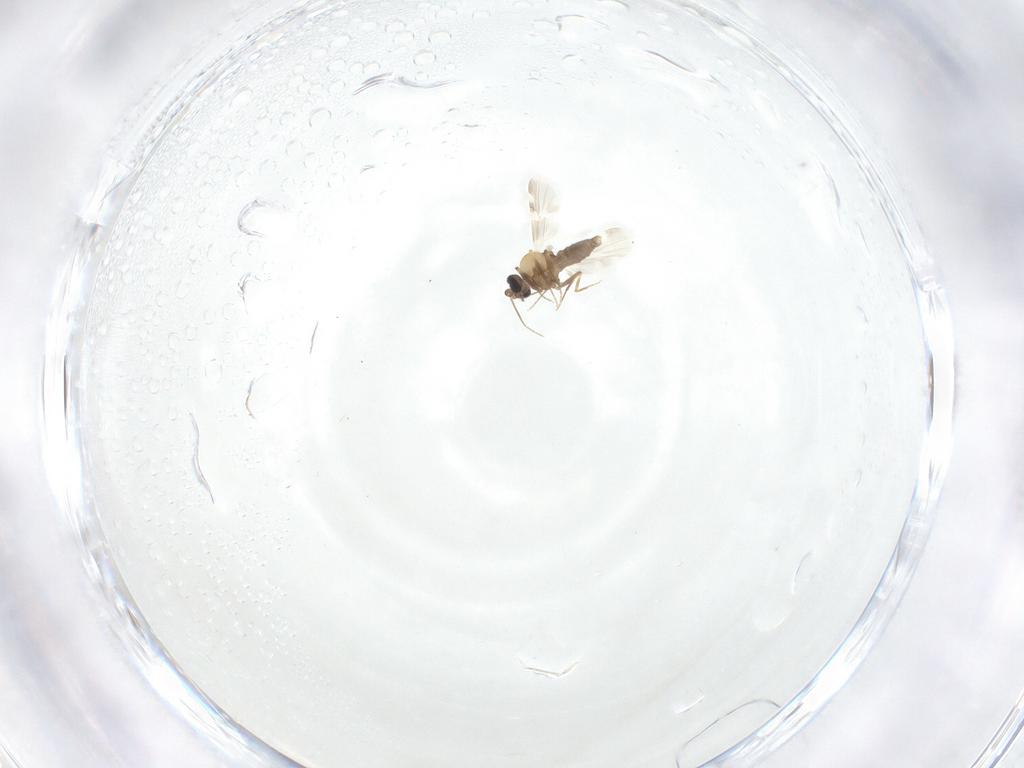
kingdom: Animalia
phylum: Arthropoda
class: Insecta
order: Diptera
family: Ceratopogonidae
